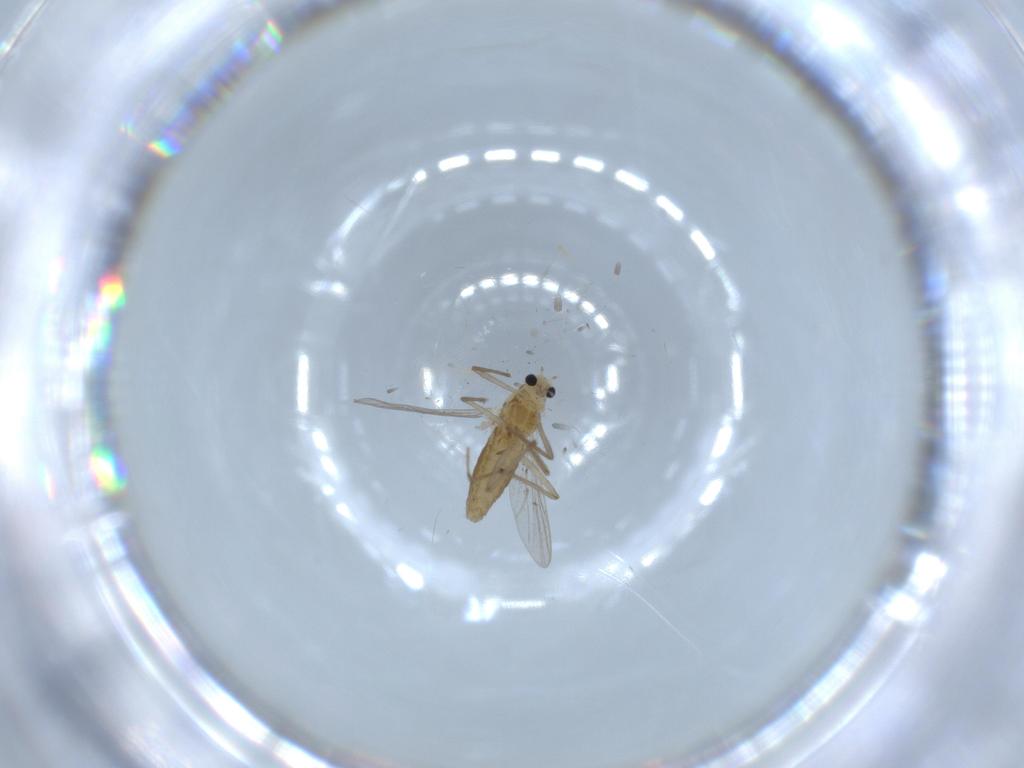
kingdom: Animalia
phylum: Arthropoda
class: Insecta
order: Diptera
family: Chironomidae
